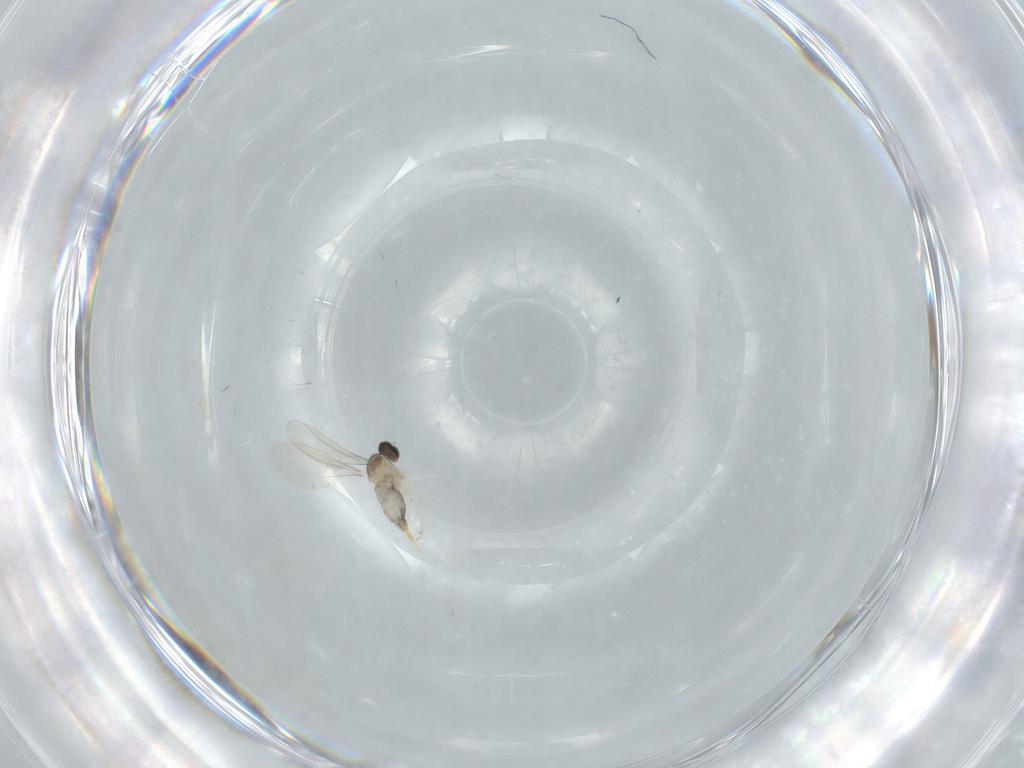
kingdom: Animalia
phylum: Arthropoda
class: Insecta
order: Diptera
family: Cecidomyiidae
